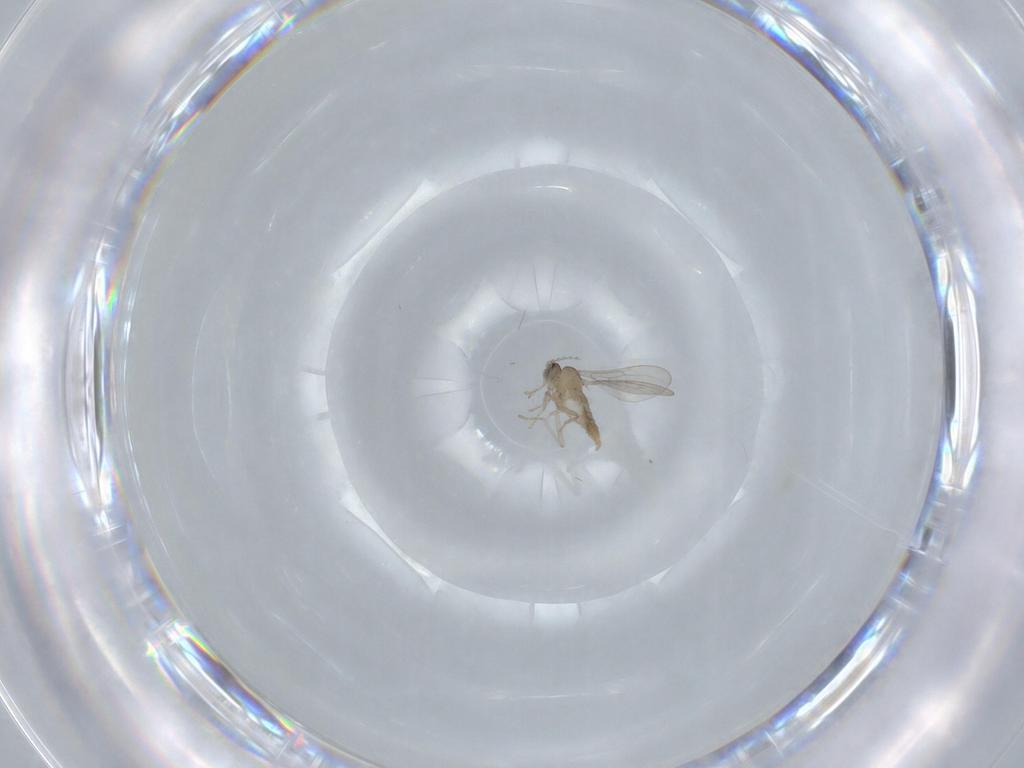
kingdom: Animalia
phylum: Arthropoda
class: Insecta
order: Diptera
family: Cecidomyiidae
